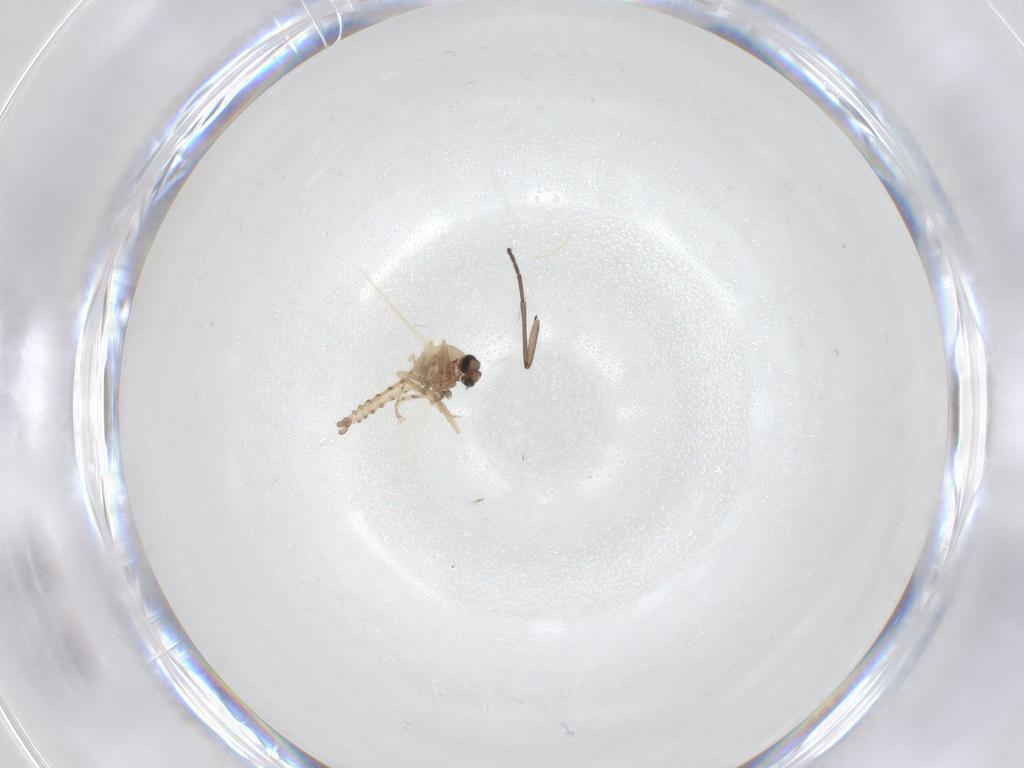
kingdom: Animalia
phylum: Arthropoda
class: Insecta
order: Diptera
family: Ceratopogonidae
